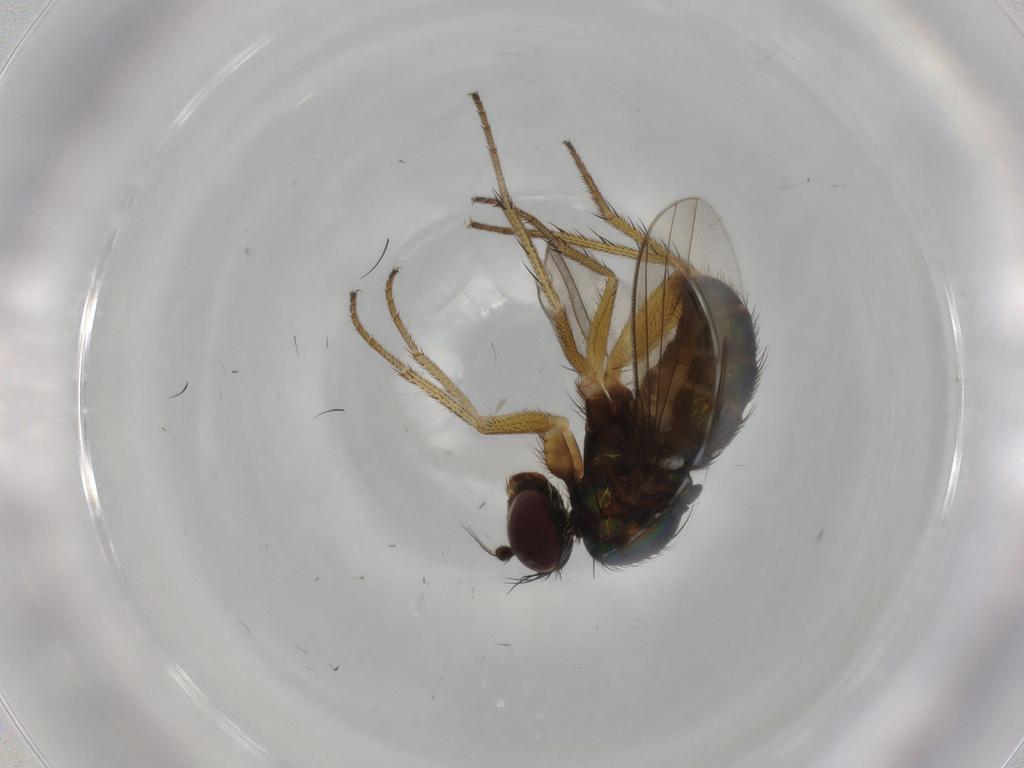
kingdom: Animalia
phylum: Arthropoda
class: Insecta
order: Diptera
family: Dolichopodidae
